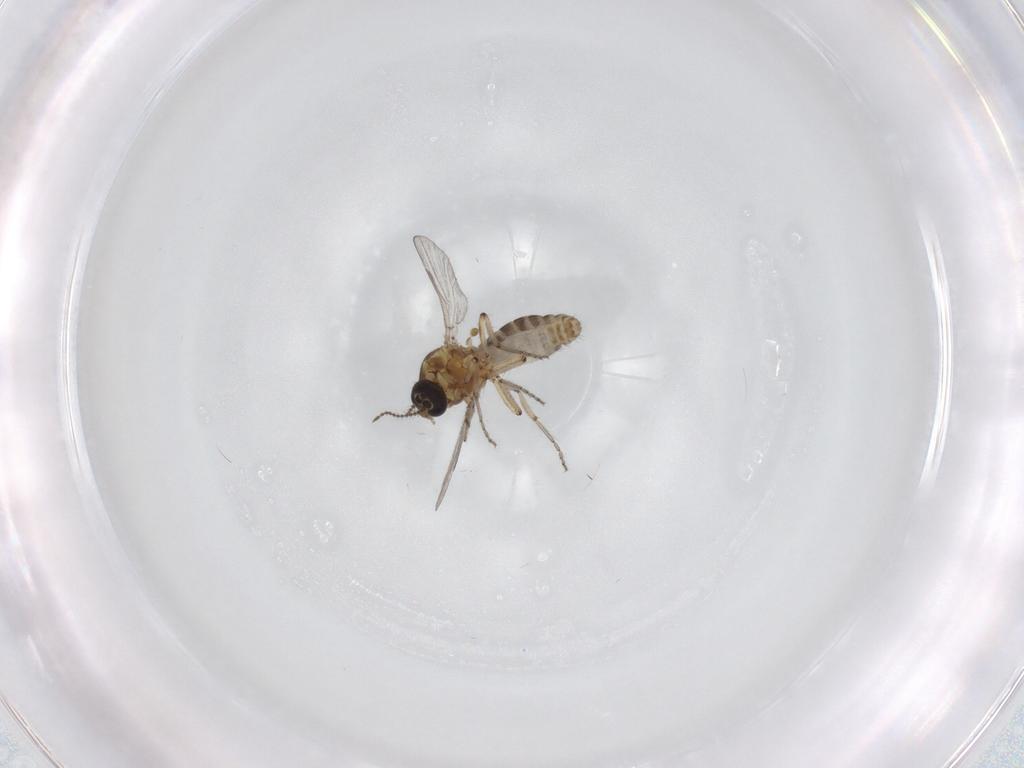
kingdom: Animalia
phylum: Arthropoda
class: Insecta
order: Diptera
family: Ceratopogonidae
